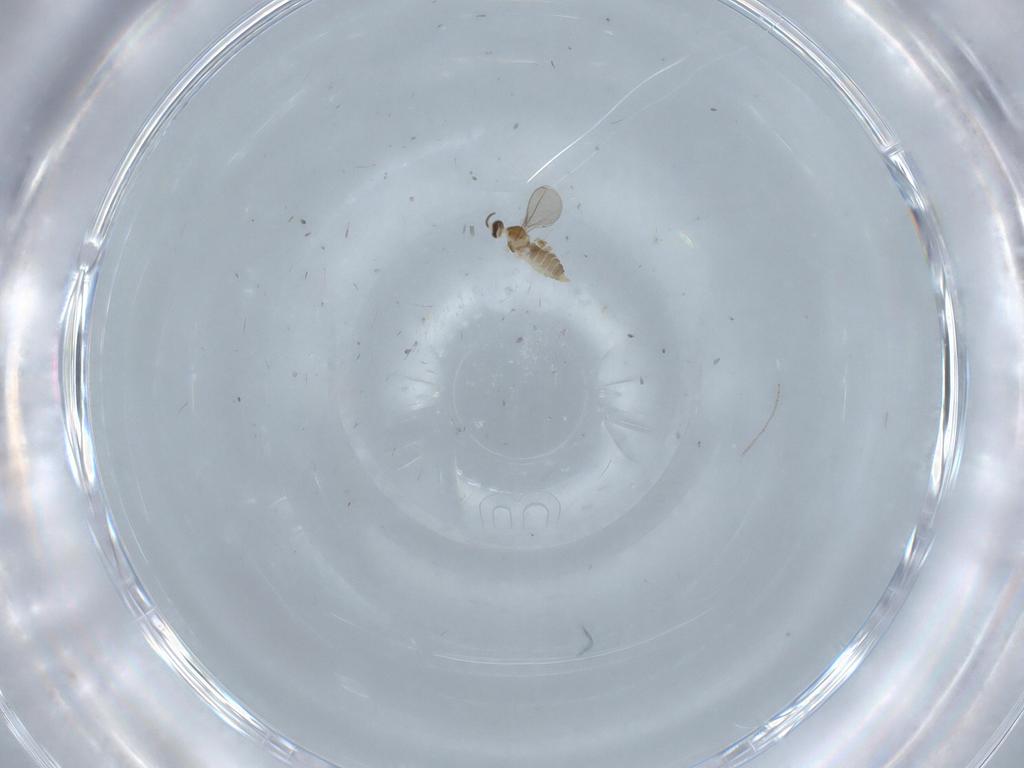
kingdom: Animalia
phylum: Arthropoda
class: Insecta
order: Diptera
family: Cecidomyiidae
